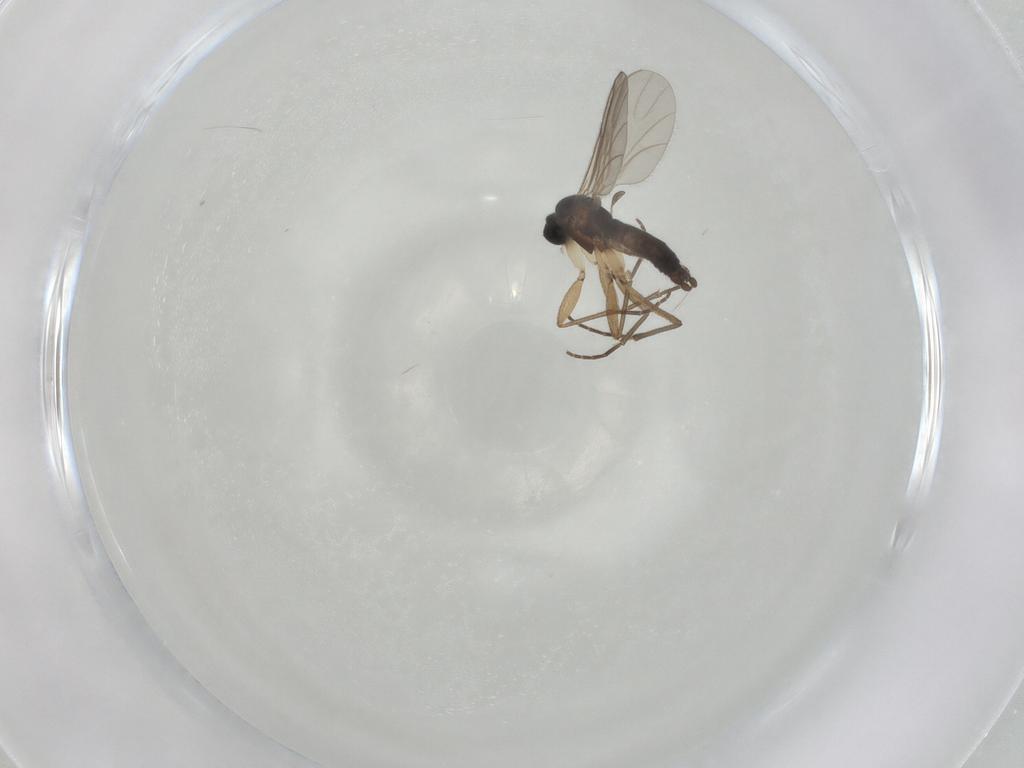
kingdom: Animalia
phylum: Arthropoda
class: Insecta
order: Diptera
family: Sciaridae
